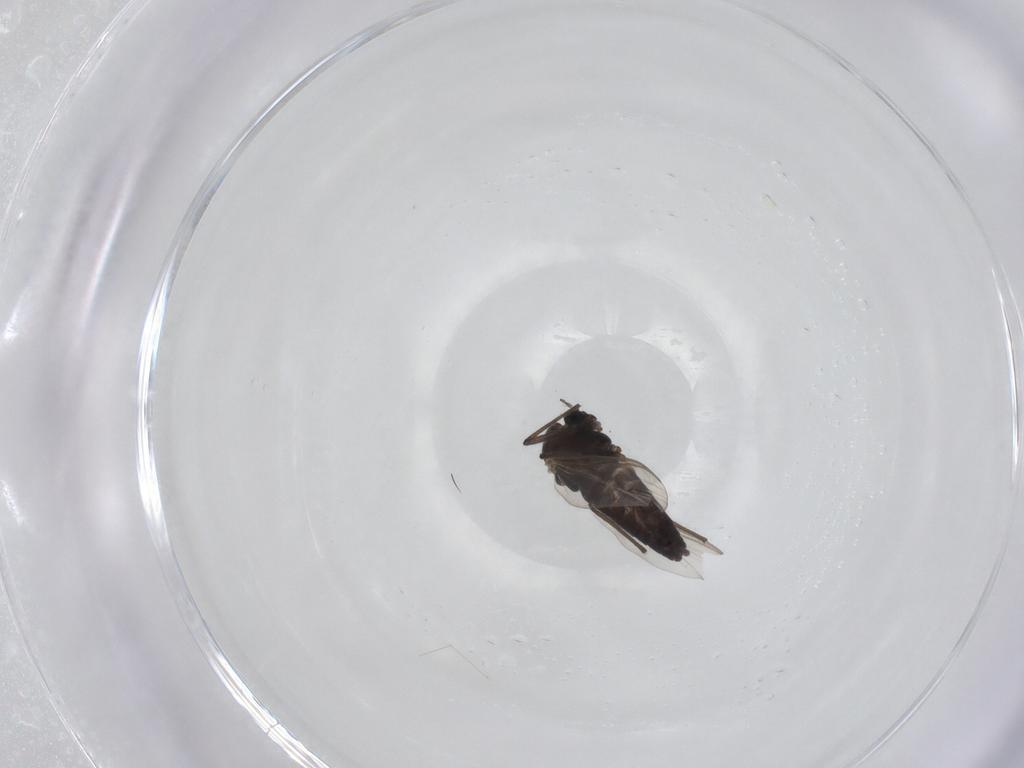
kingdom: Animalia
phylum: Arthropoda
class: Insecta
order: Diptera
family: Chironomidae
